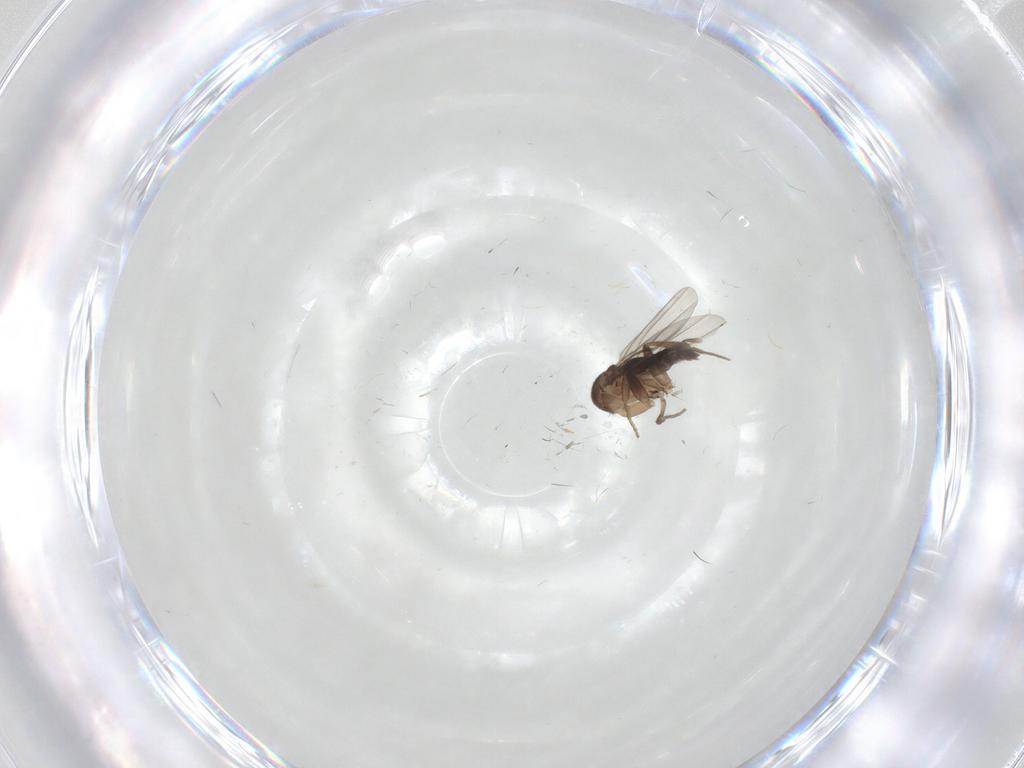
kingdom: Animalia
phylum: Arthropoda
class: Insecta
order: Diptera
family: Phoridae
